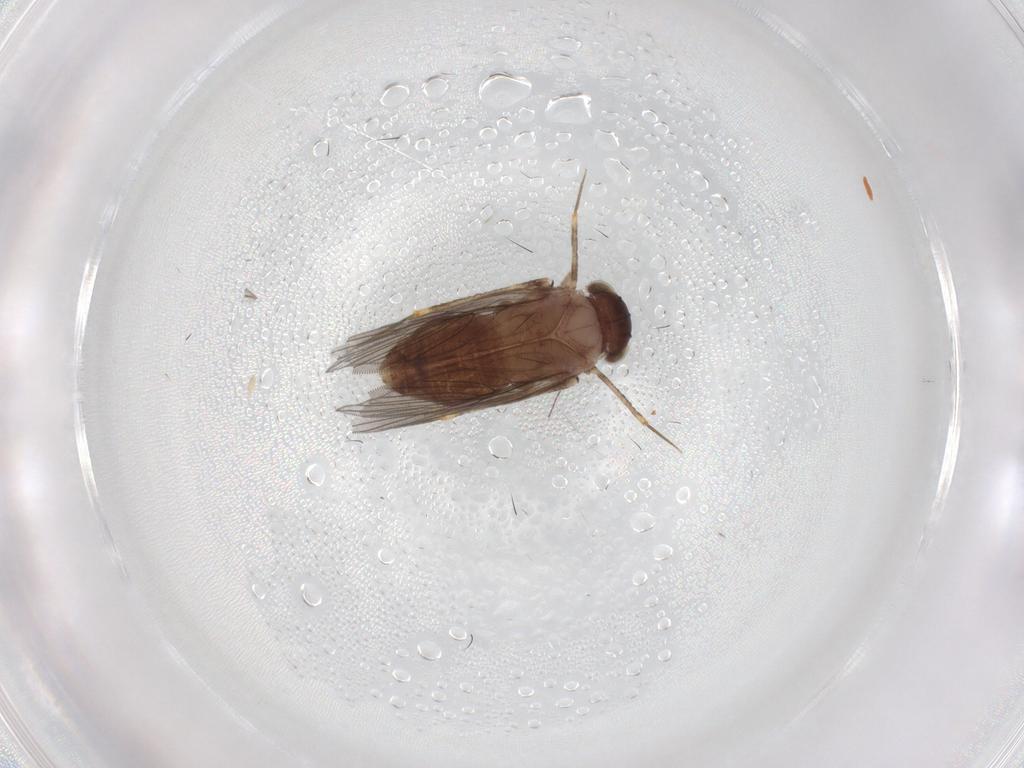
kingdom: Animalia
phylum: Arthropoda
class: Insecta
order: Psocodea
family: Lepidopsocidae
